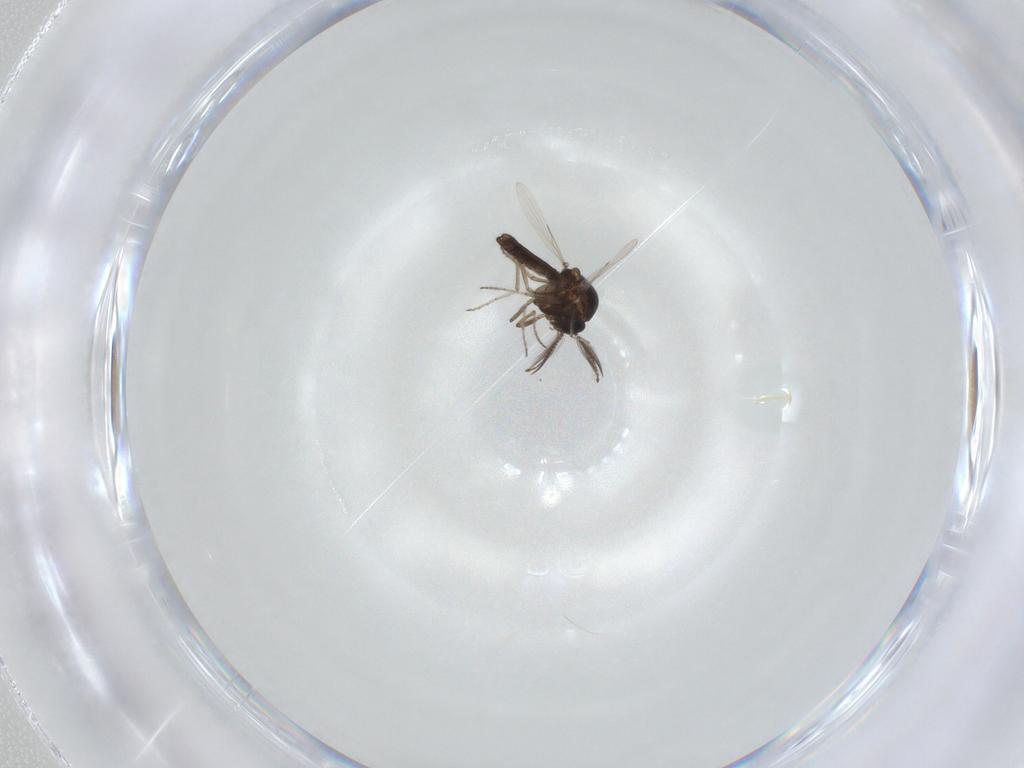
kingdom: Animalia
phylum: Arthropoda
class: Insecta
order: Diptera
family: Ceratopogonidae
